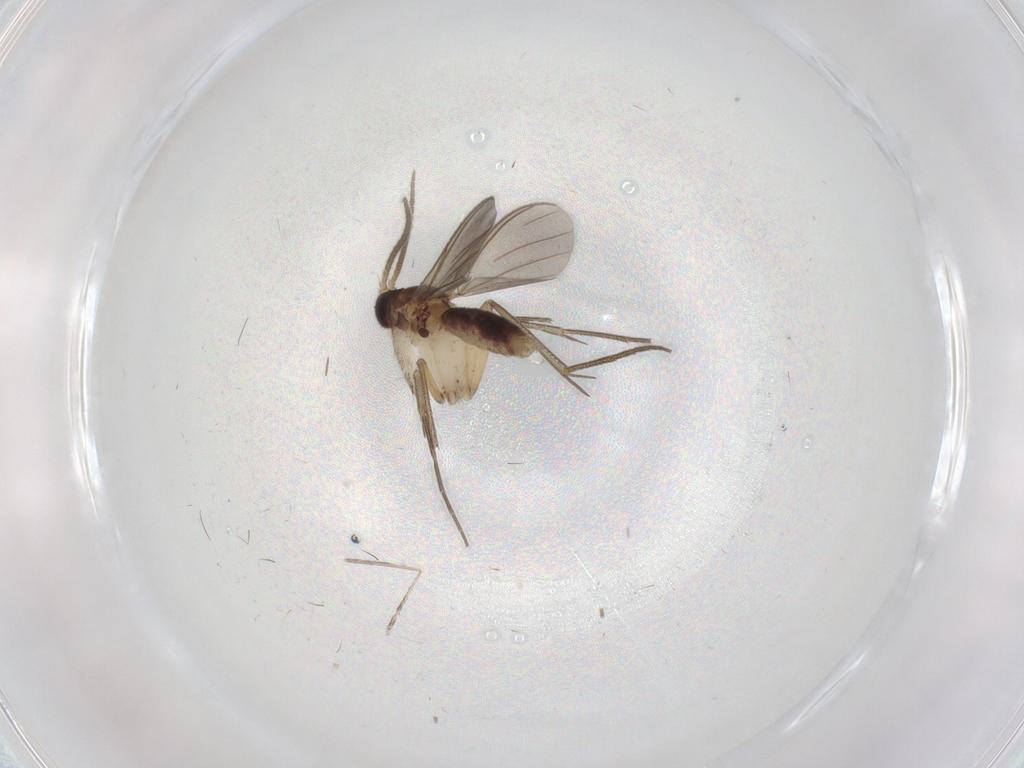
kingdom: Animalia
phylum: Arthropoda
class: Insecta
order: Diptera
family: Mycetophilidae
